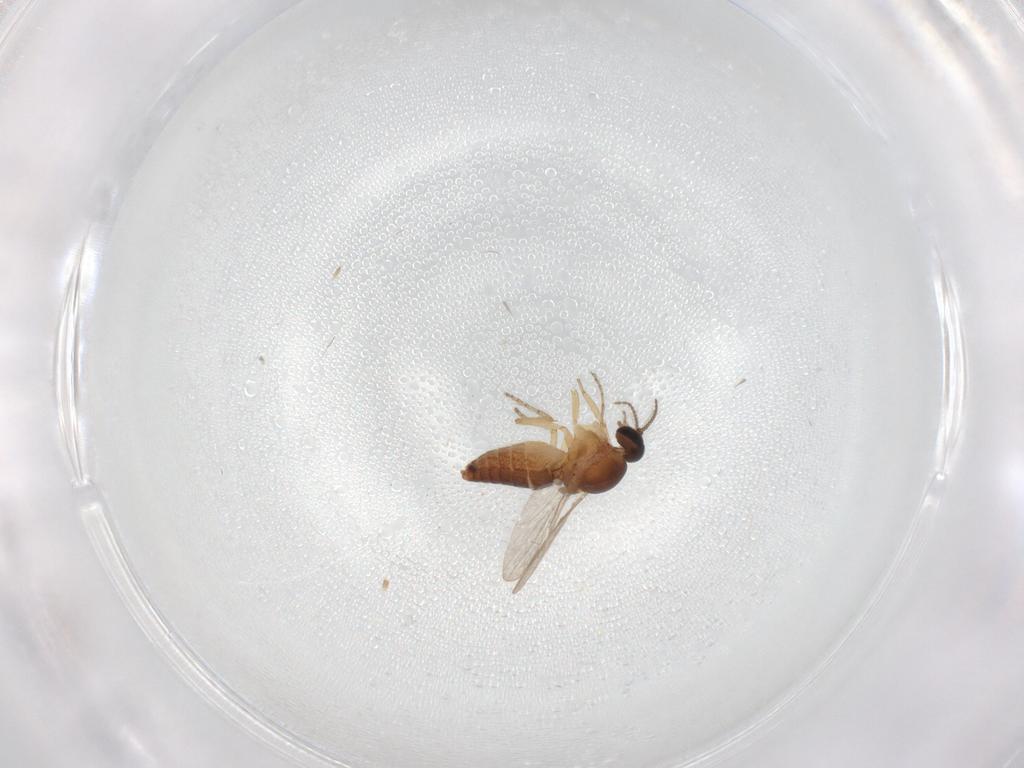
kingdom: Animalia
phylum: Arthropoda
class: Insecta
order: Diptera
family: Ceratopogonidae
